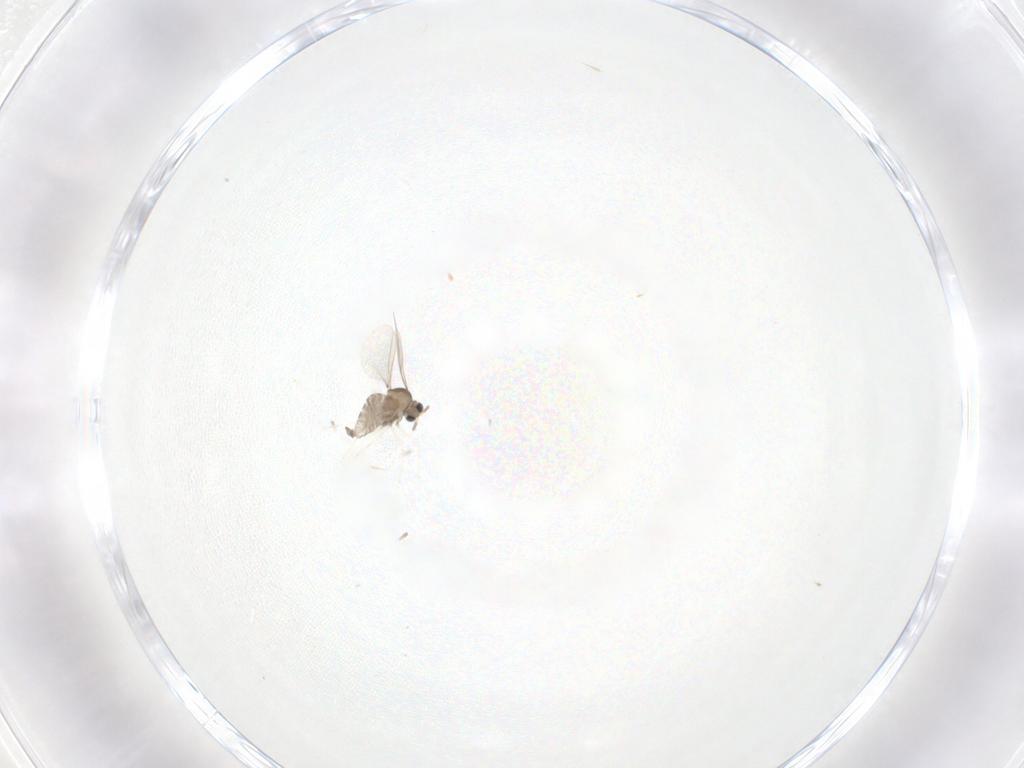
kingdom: Animalia
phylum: Arthropoda
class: Insecta
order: Diptera
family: Cecidomyiidae
